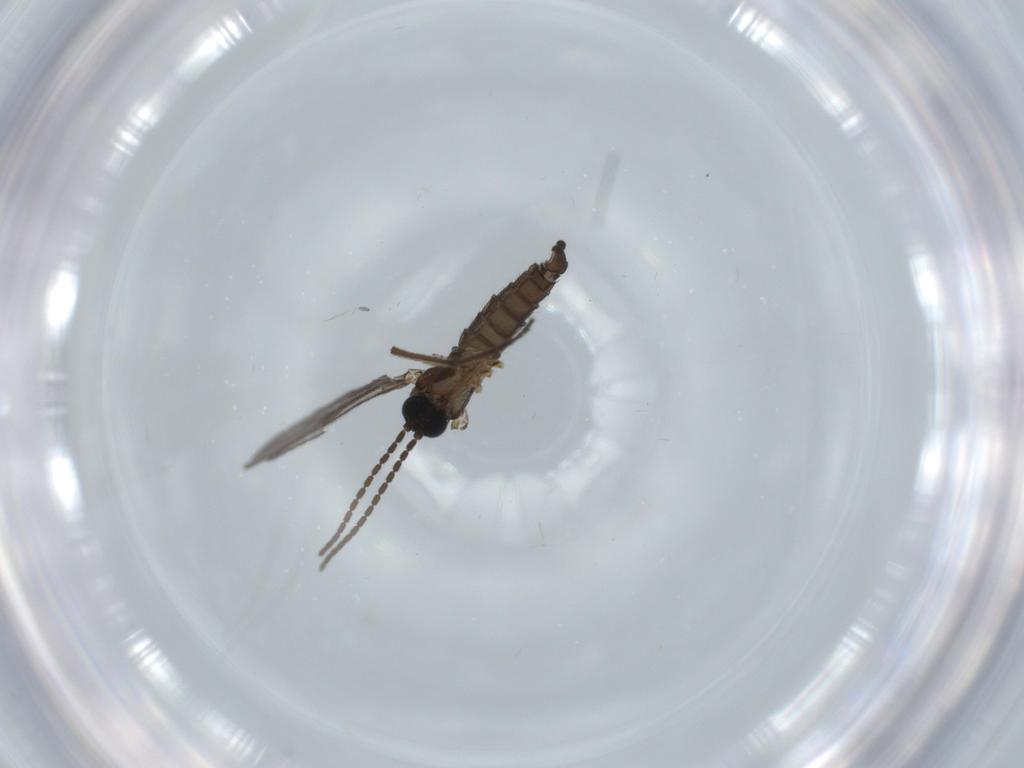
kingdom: Animalia
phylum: Arthropoda
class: Insecta
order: Diptera
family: Sciaridae
